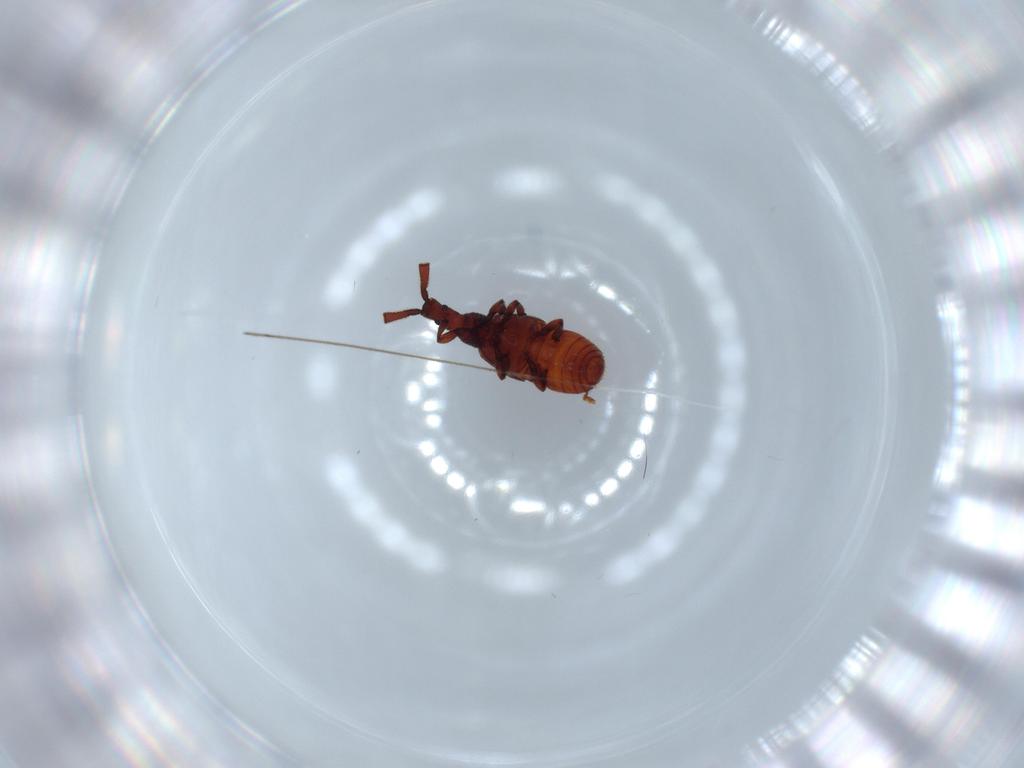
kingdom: Animalia
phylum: Arthropoda
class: Insecta
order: Coleoptera
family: Staphylinidae
